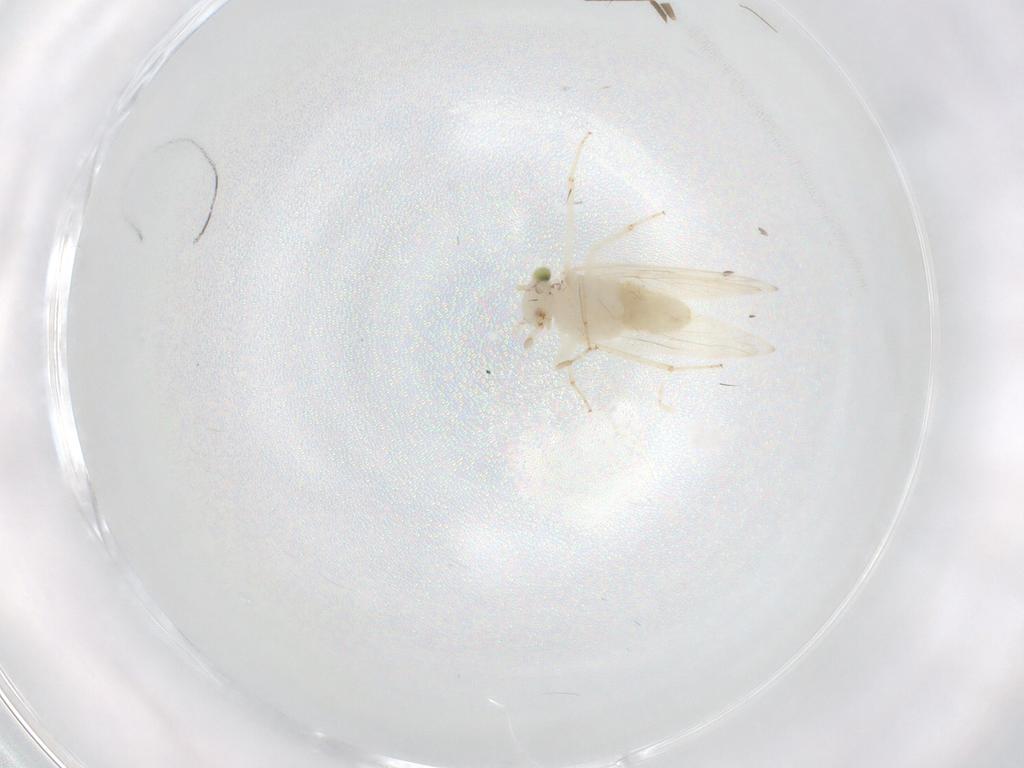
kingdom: Animalia
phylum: Arthropoda
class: Insecta
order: Psocodea
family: Lepidopsocidae
